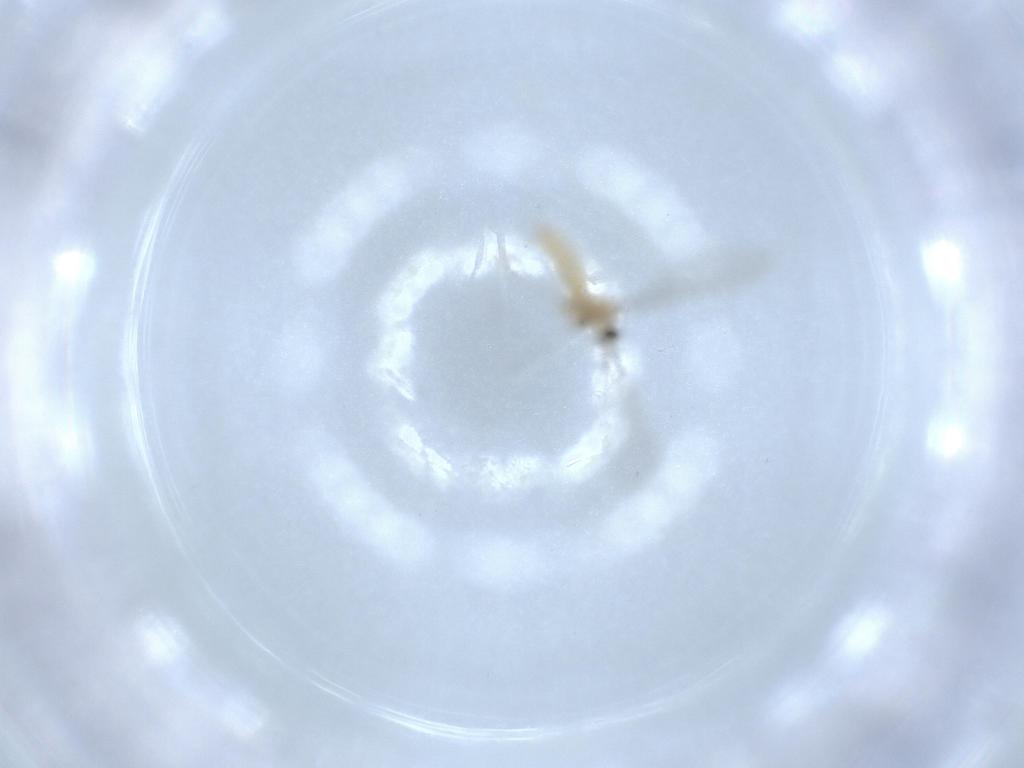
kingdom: Animalia
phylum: Arthropoda
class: Insecta
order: Diptera
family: Cecidomyiidae
